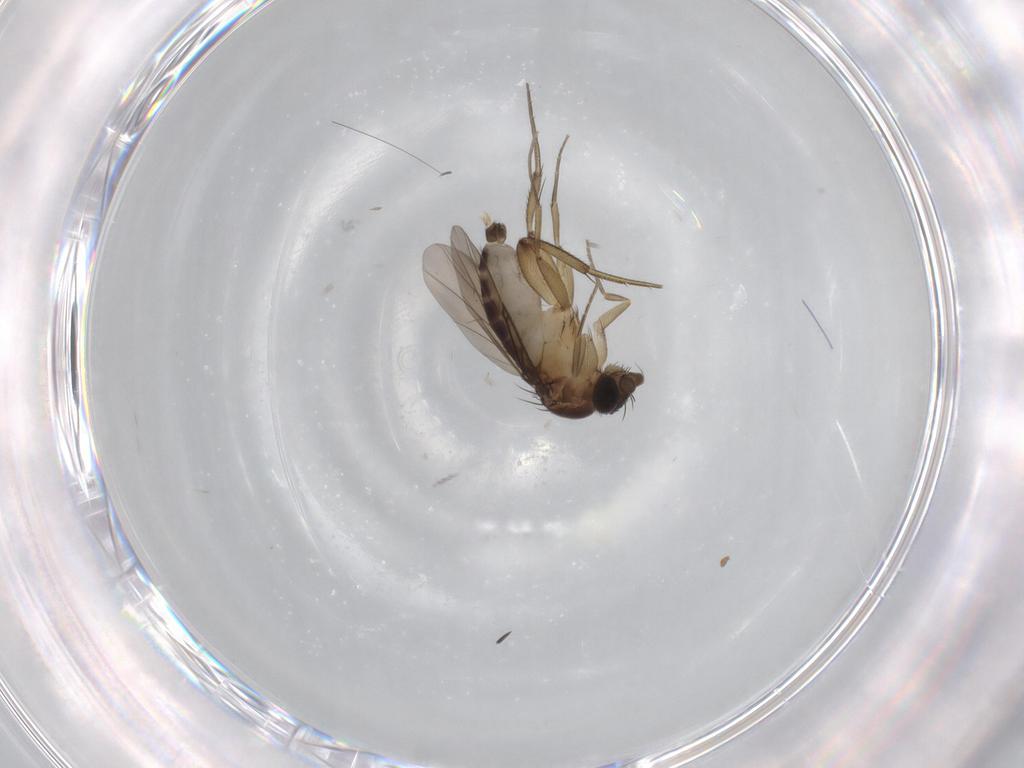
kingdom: Animalia
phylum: Arthropoda
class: Insecta
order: Diptera
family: Phoridae
